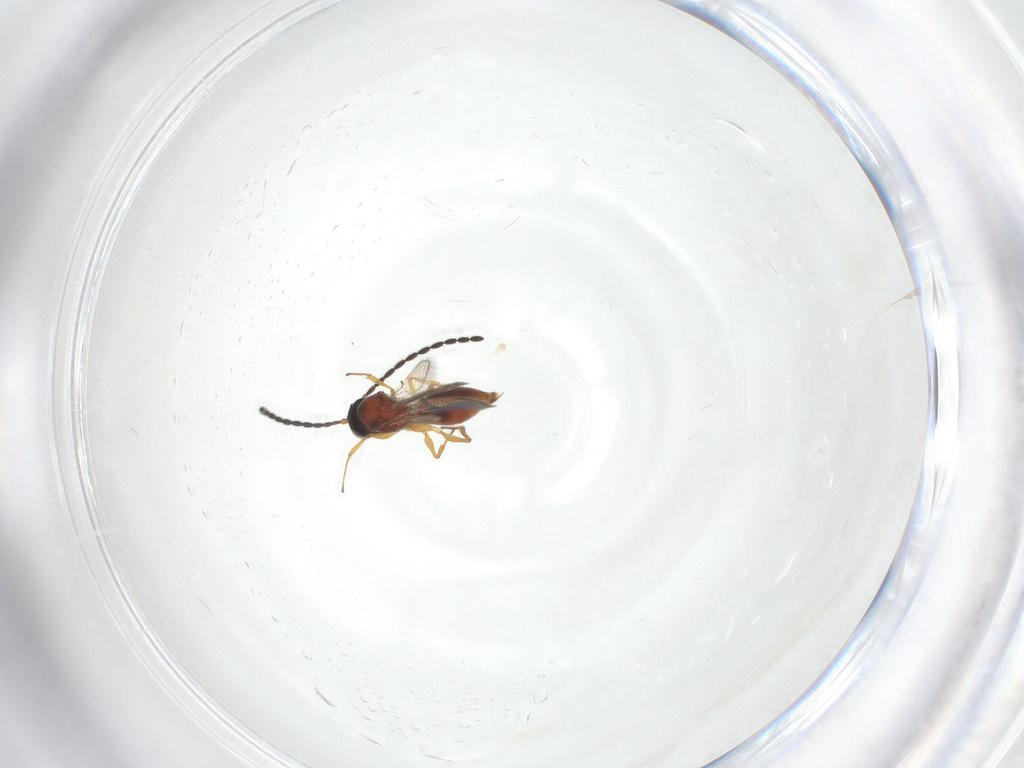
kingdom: Animalia
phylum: Arthropoda
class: Insecta
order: Hymenoptera
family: Figitidae
